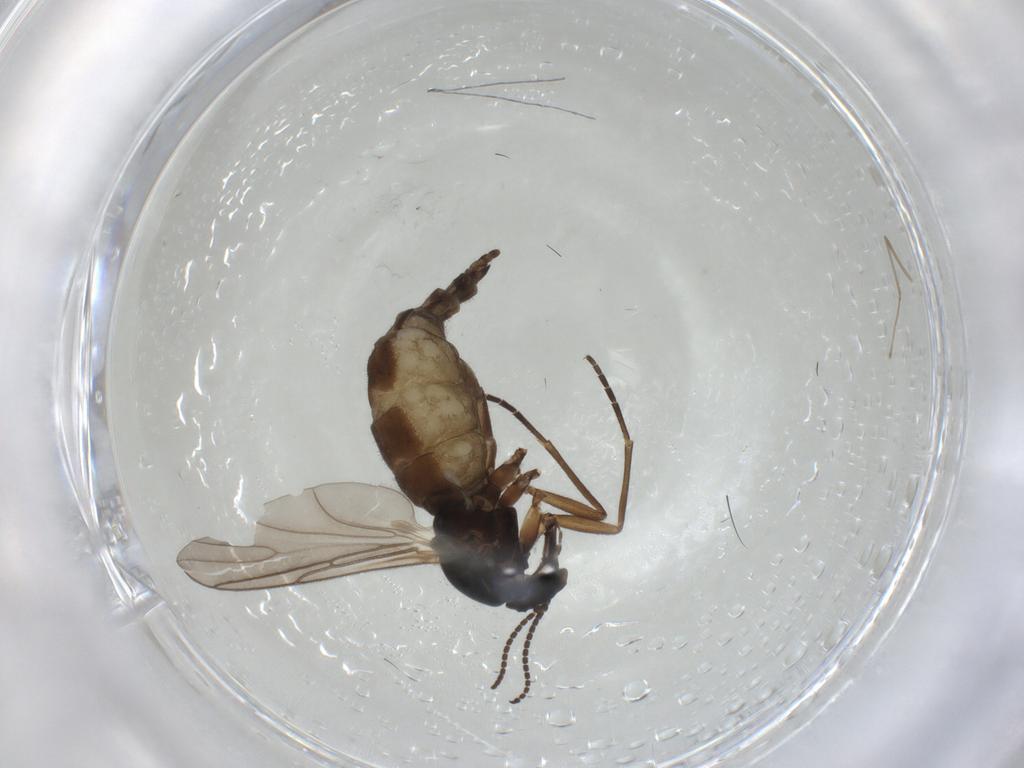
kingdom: Animalia
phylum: Arthropoda
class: Insecta
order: Diptera
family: Sciaridae
